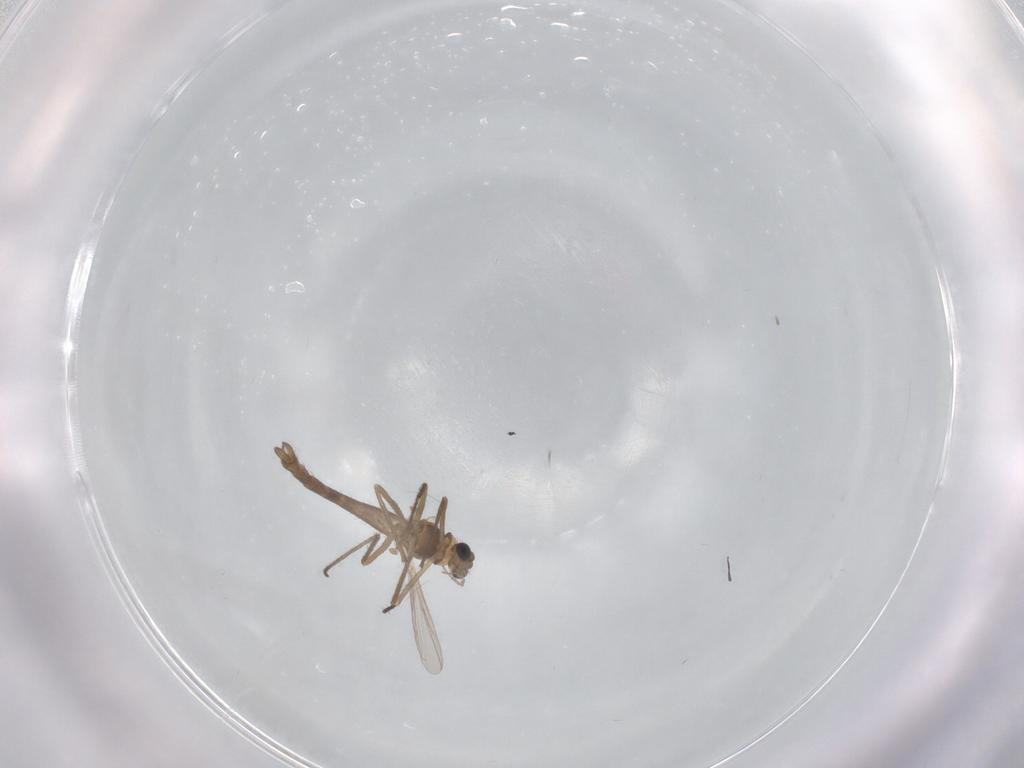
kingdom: Animalia
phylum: Arthropoda
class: Insecta
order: Diptera
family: Chironomidae
